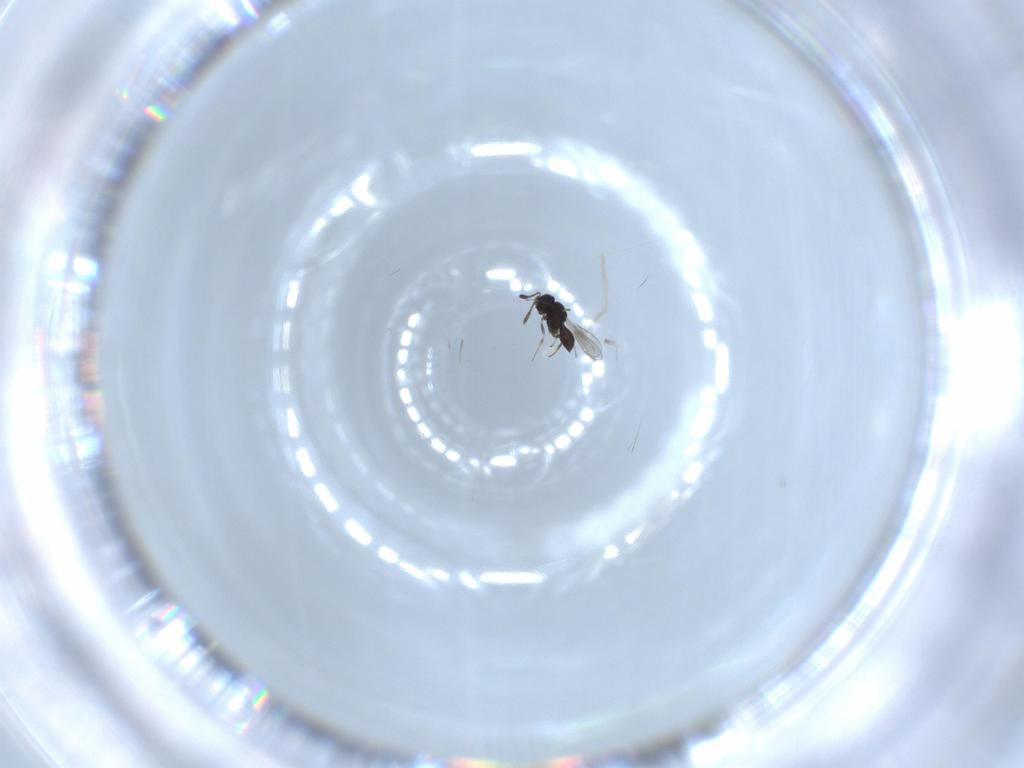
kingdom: Animalia
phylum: Arthropoda
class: Insecta
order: Hymenoptera
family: Scelionidae
